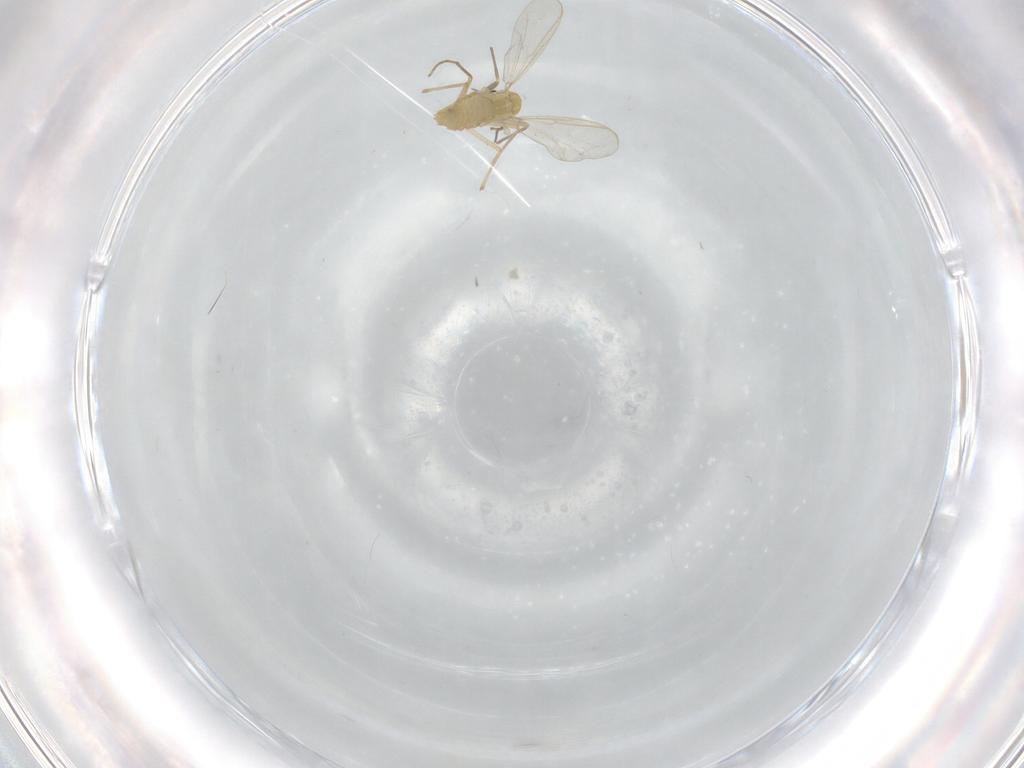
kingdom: Animalia
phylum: Arthropoda
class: Insecta
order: Diptera
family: Chironomidae
